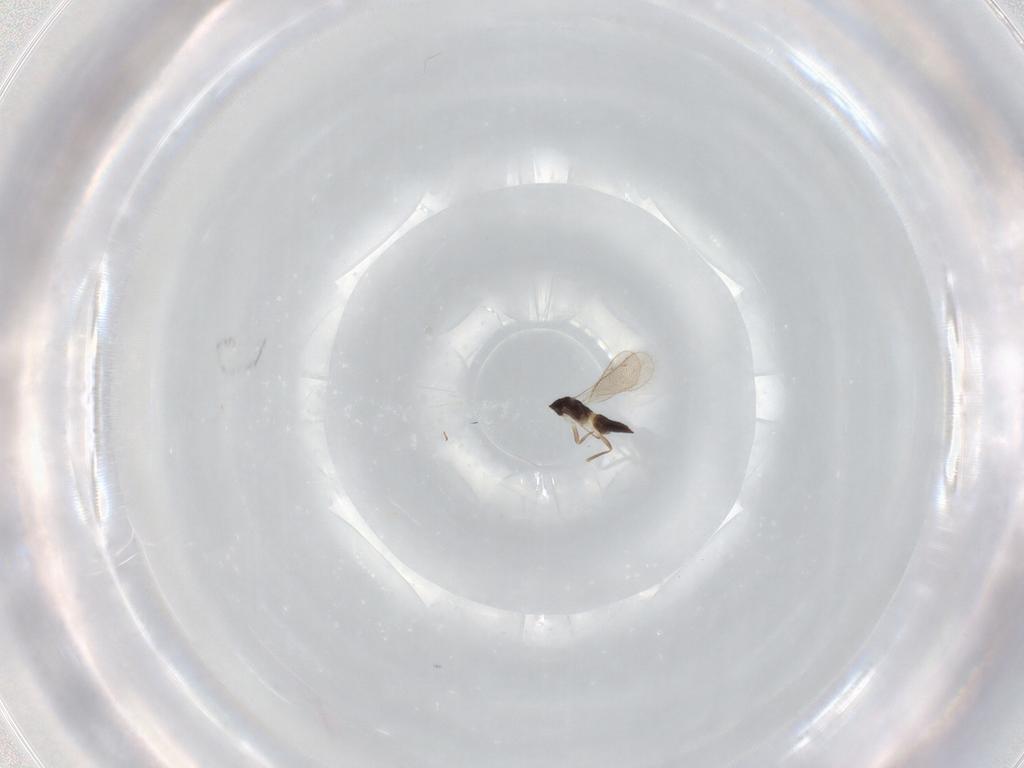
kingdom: Animalia
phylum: Arthropoda
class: Insecta
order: Hymenoptera
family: Eulophidae
